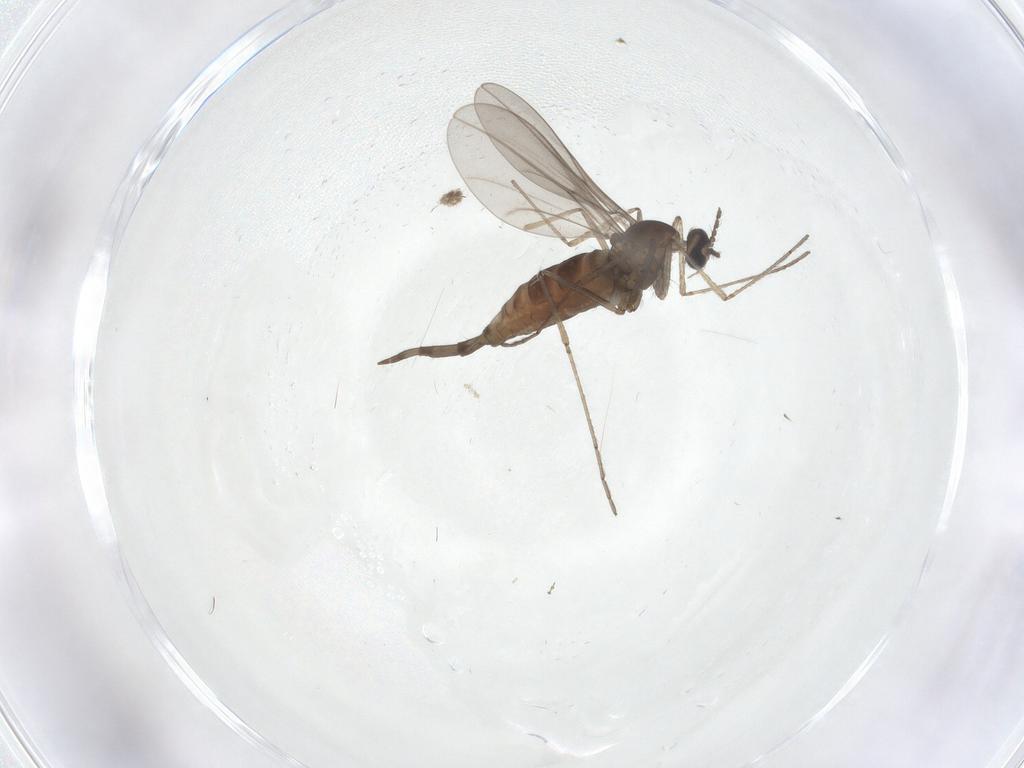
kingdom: Animalia
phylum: Arthropoda
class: Insecta
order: Diptera
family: Cecidomyiidae
